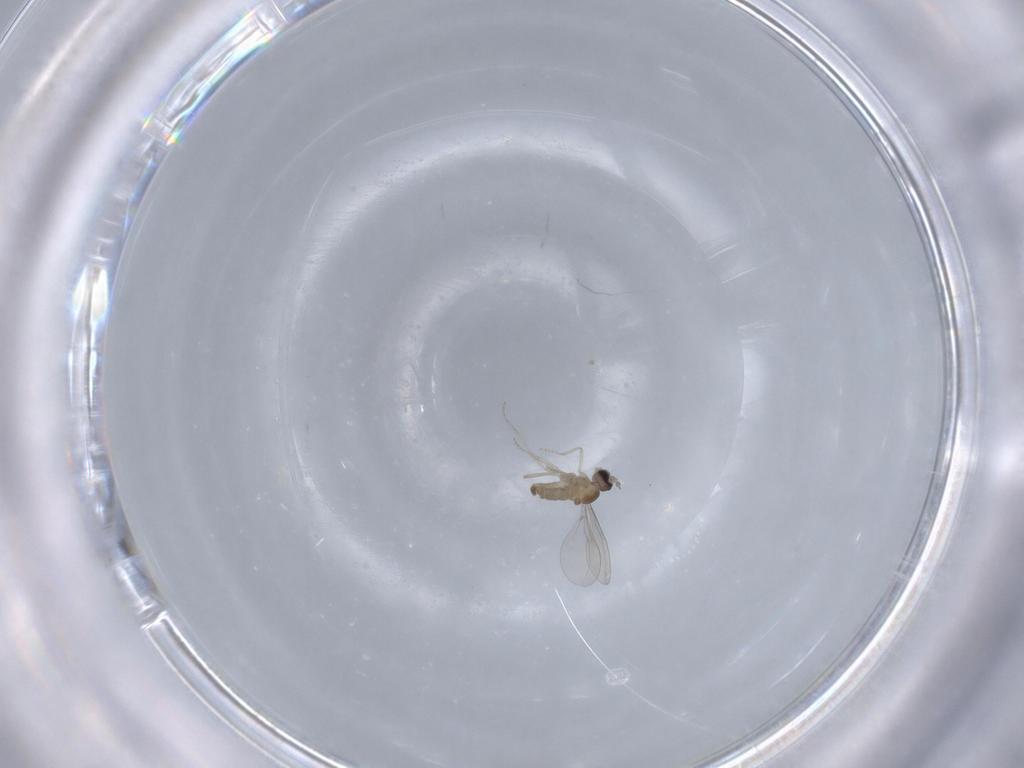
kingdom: Animalia
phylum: Arthropoda
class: Insecta
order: Diptera
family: Cecidomyiidae
